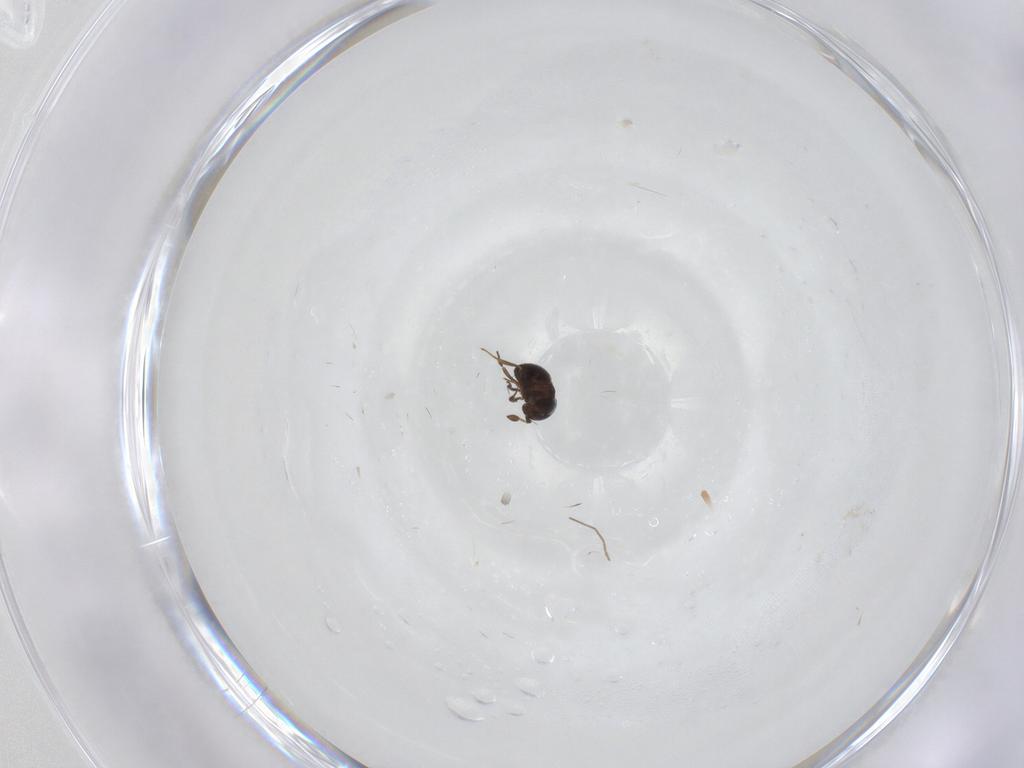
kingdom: Animalia
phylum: Arthropoda
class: Insecta
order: Hymenoptera
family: Scelionidae
